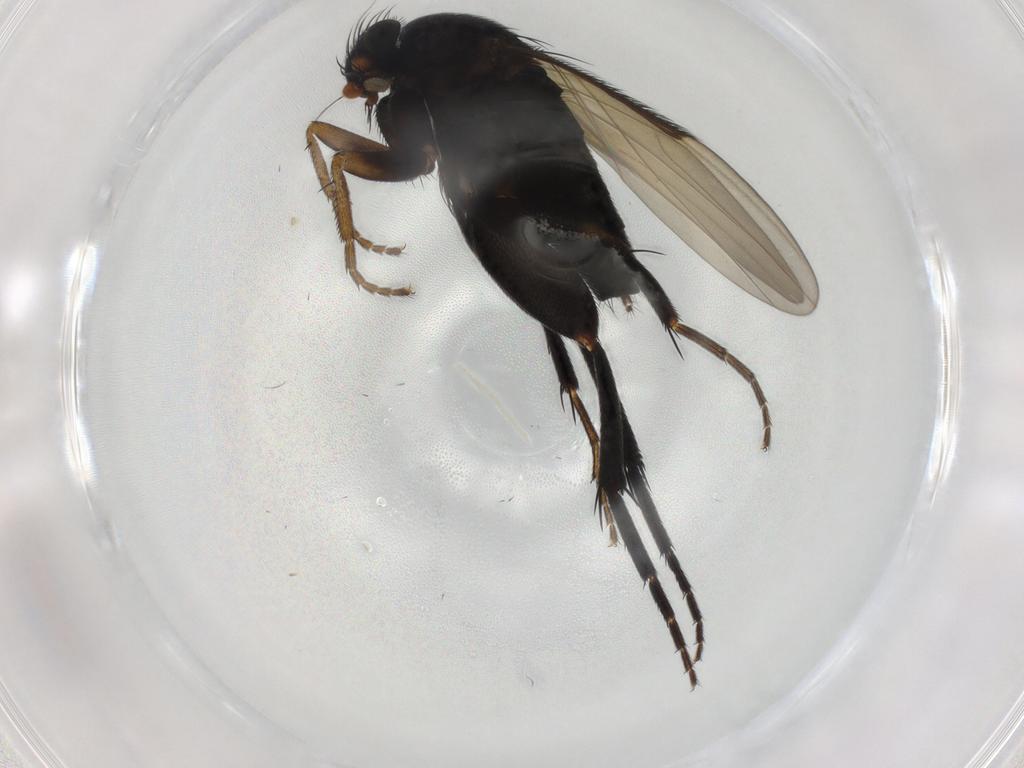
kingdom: Animalia
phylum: Arthropoda
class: Insecta
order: Diptera
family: Phoridae
